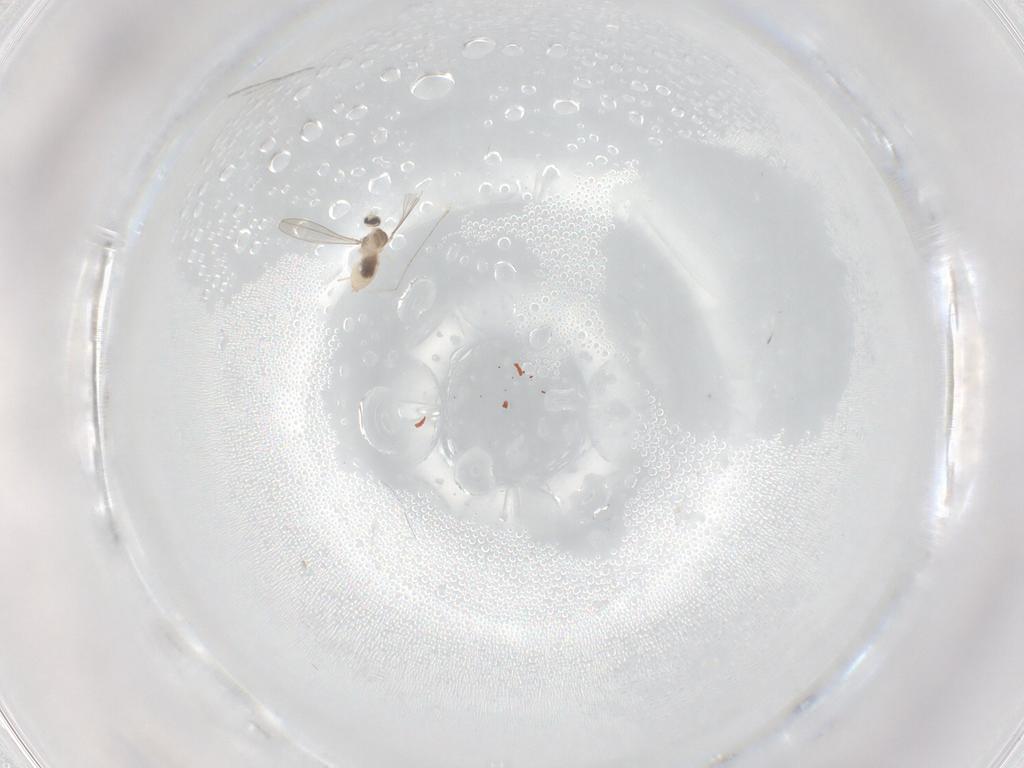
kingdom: Animalia
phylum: Arthropoda
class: Insecta
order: Diptera
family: Cecidomyiidae
